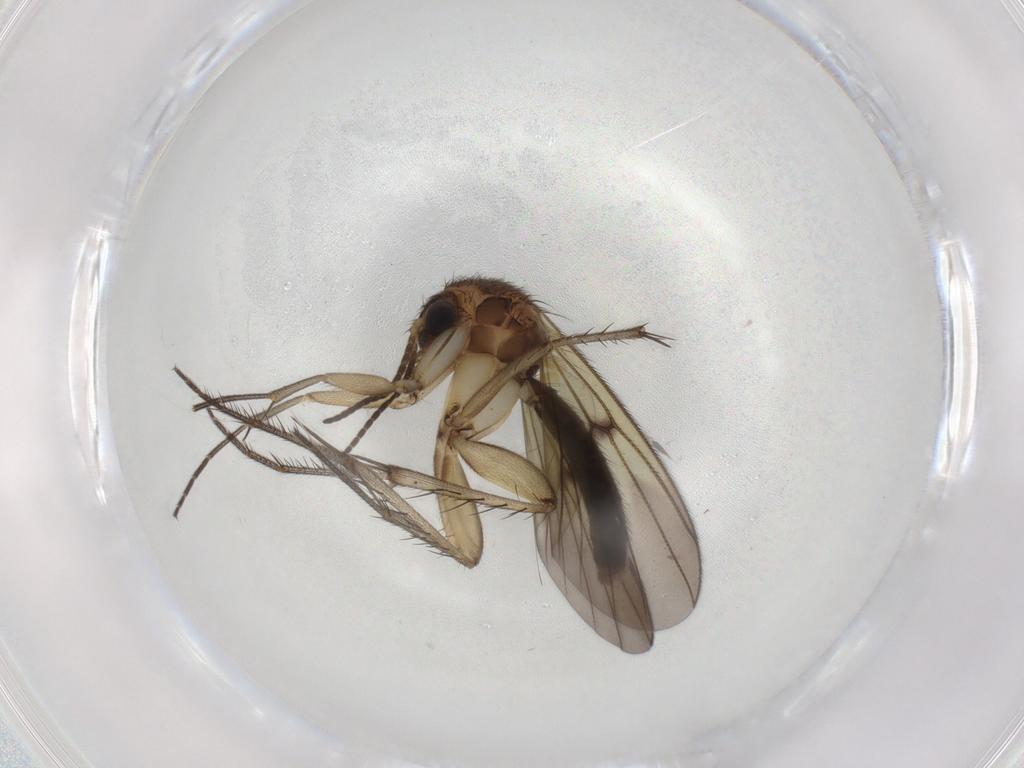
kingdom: Animalia
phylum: Arthropoda
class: Insecta
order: Diptera
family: Mycetophilidae
